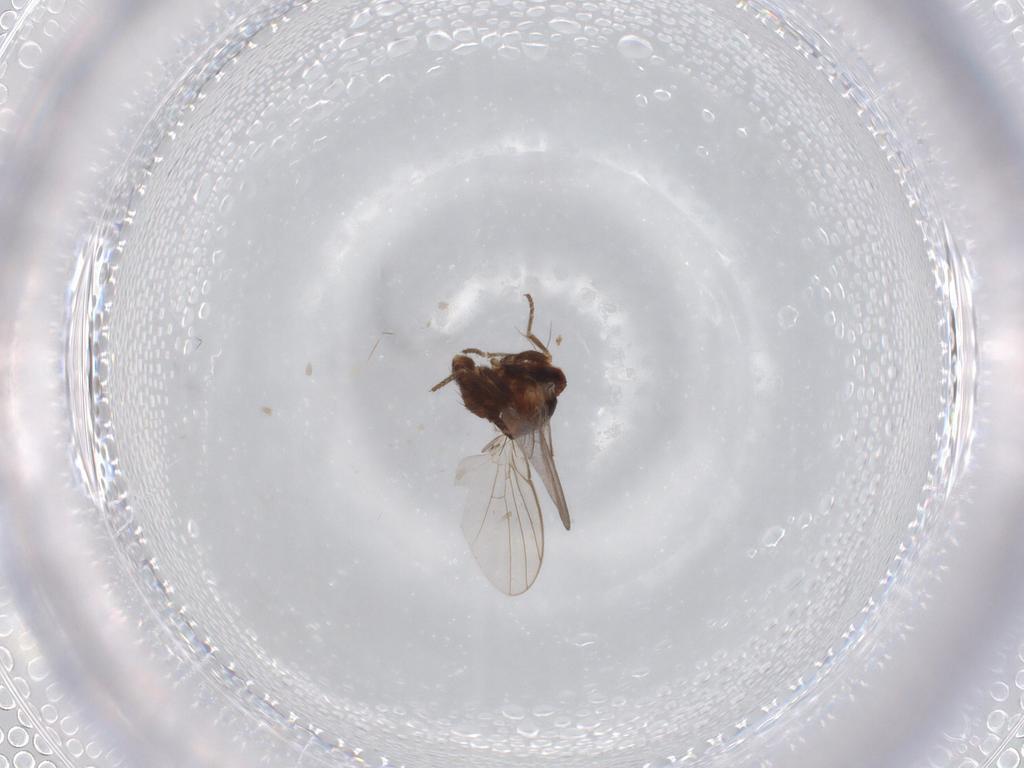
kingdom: Animalia
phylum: Arthropoda
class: Insecta
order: Diptera
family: Agromyzidae
